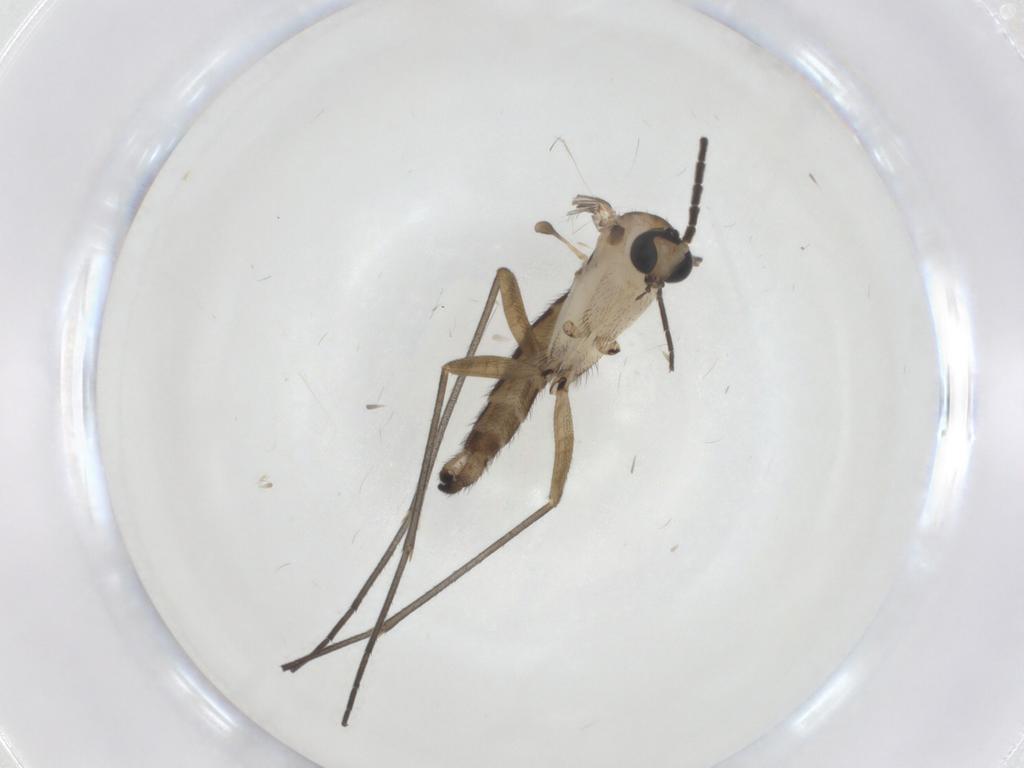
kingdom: Animalia
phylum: Arthropoda
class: Insecta
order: Diptera
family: Sciaridae
